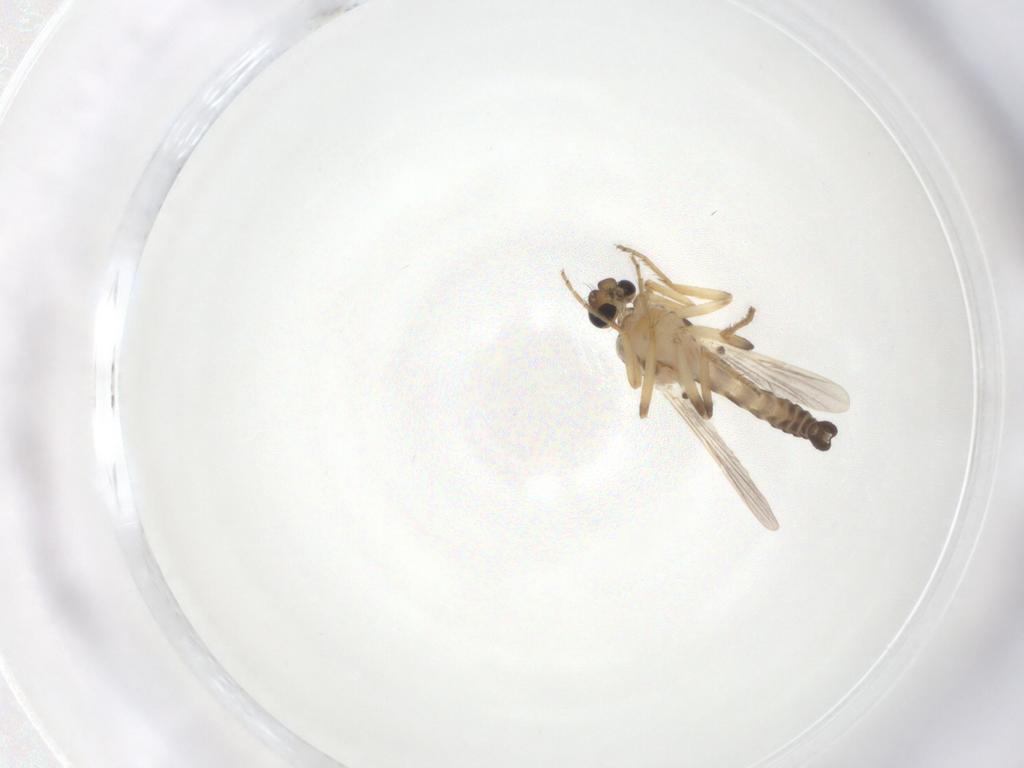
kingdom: Animalia
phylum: Arthropoda
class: Insecta
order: Diptera
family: Ceratopogonidae
